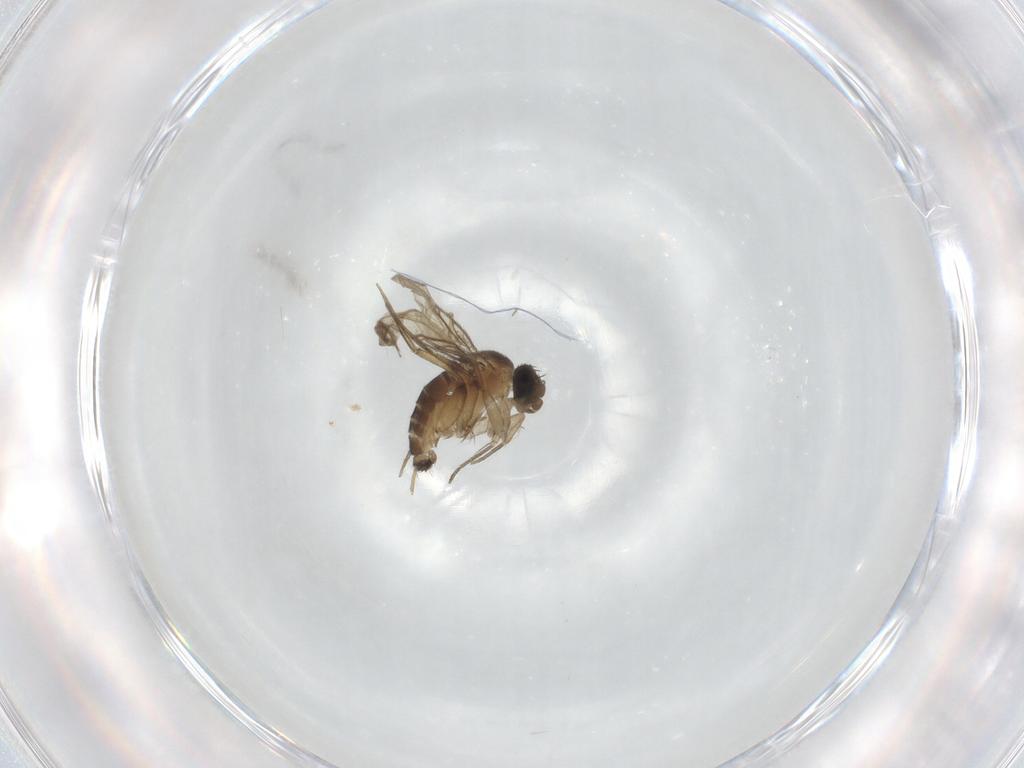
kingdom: Animalia
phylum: Arthropoda
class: Insecta
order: Diptera
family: Phoridae
